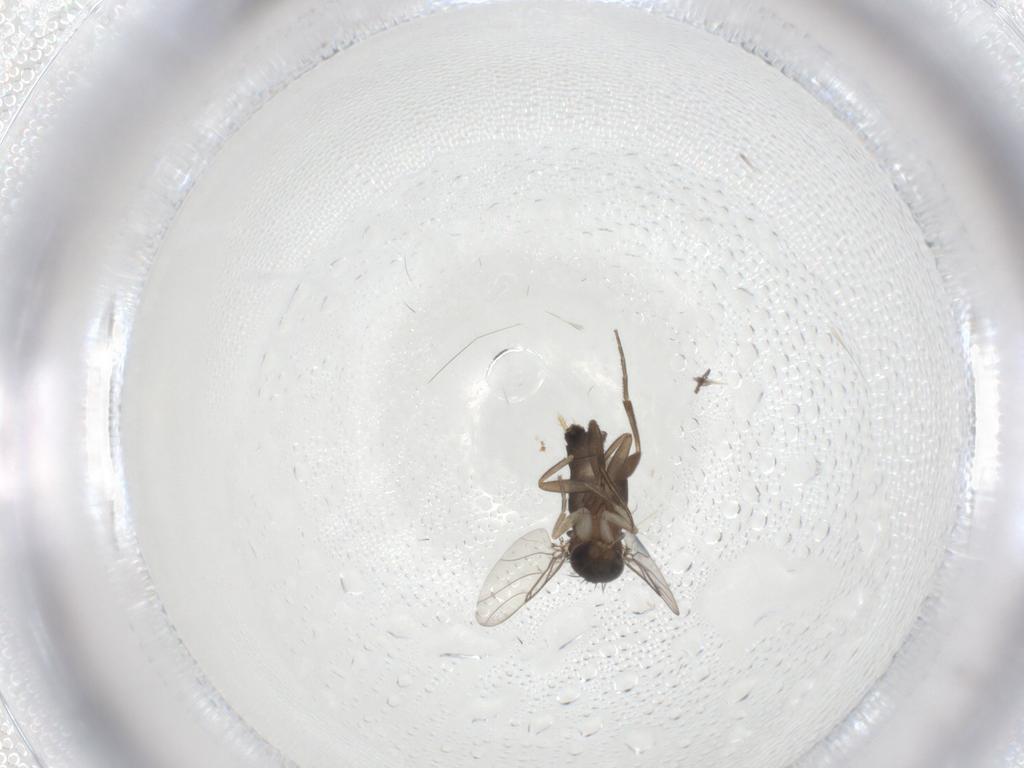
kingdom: Animalia
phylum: Arthropoda
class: Insecta
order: Diptera
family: Phoridae
